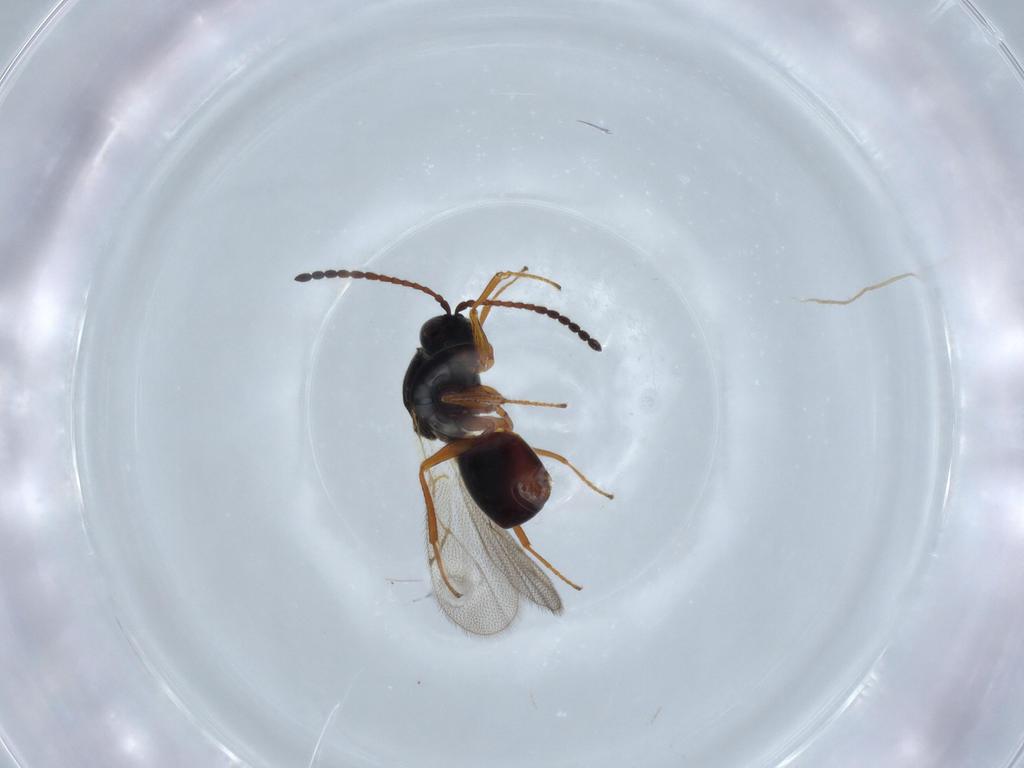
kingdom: Animalia
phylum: Arthropoda
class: Insecta
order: Hymenoptera
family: Figitidae
